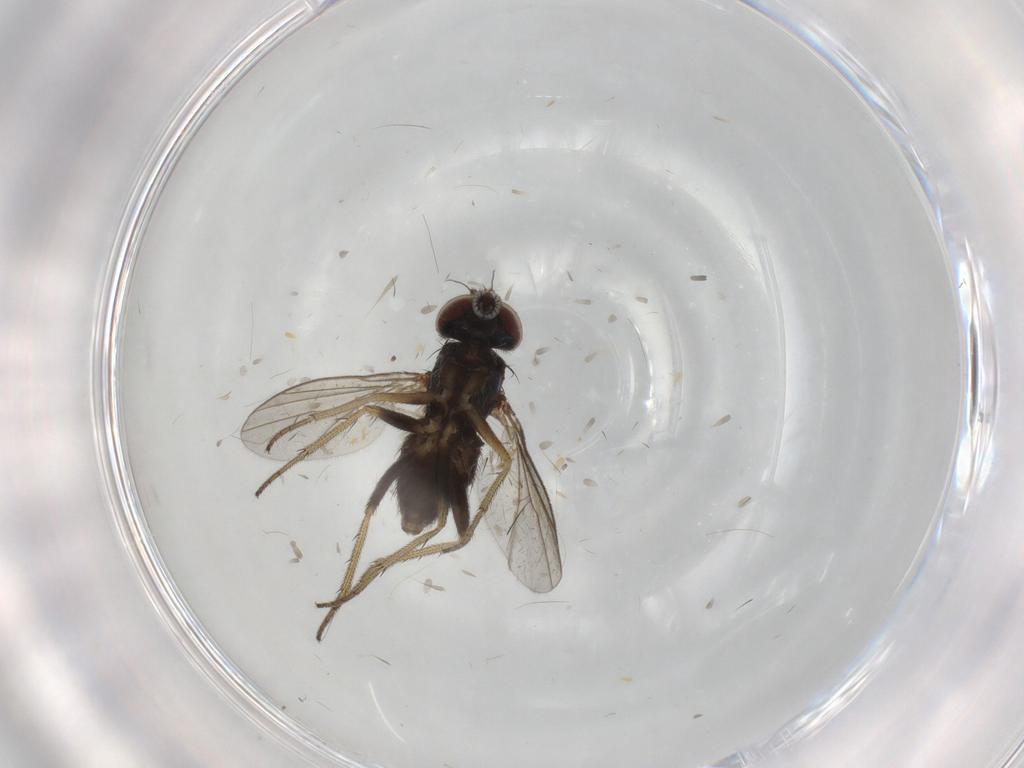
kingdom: Animalia
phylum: Arthropoda
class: Insecta
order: Diptera
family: Dolichopodidae
